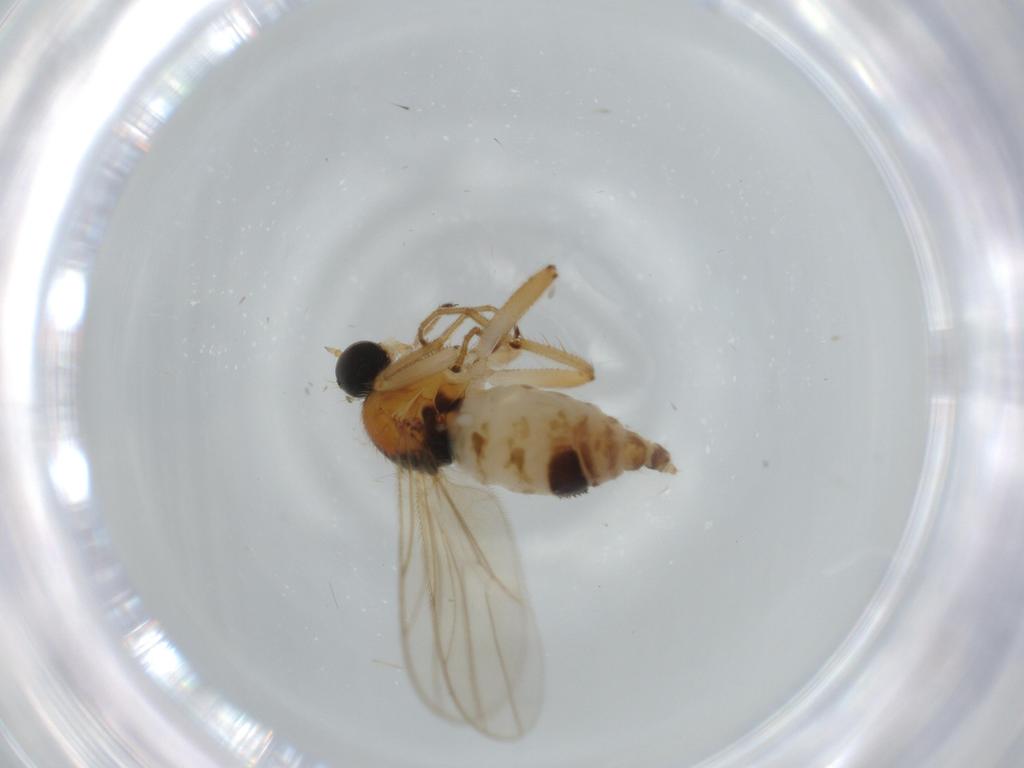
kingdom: Animalia
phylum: Arthropoda
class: Insecta
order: Diptera
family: Hybotidae
